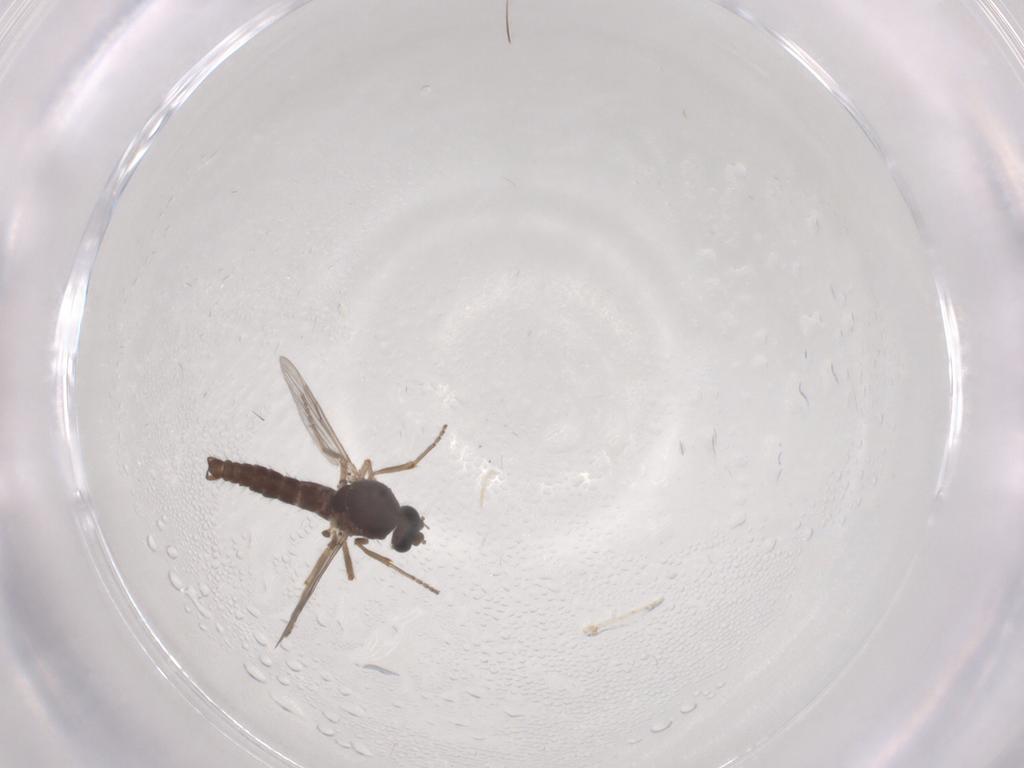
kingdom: Animalia
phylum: Arthropoda
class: Insecta
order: Diptera
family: Ceratopogonidae
